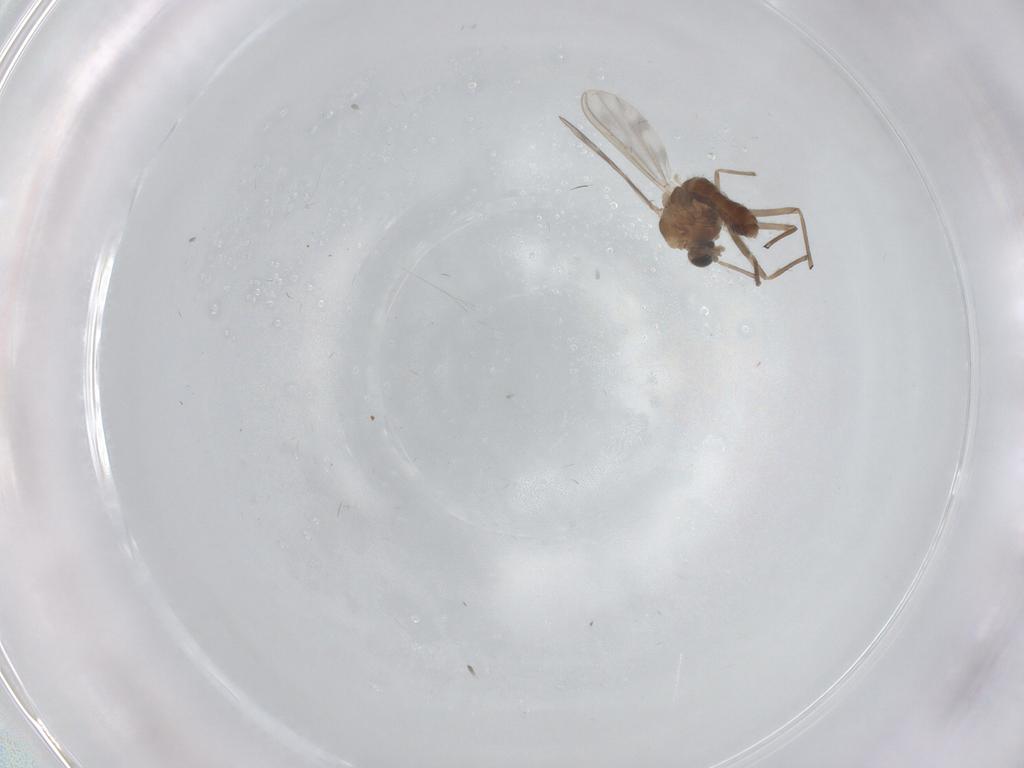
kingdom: Animalia
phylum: Arthropoda
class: Insecta
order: Diptera
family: Chironomidae
